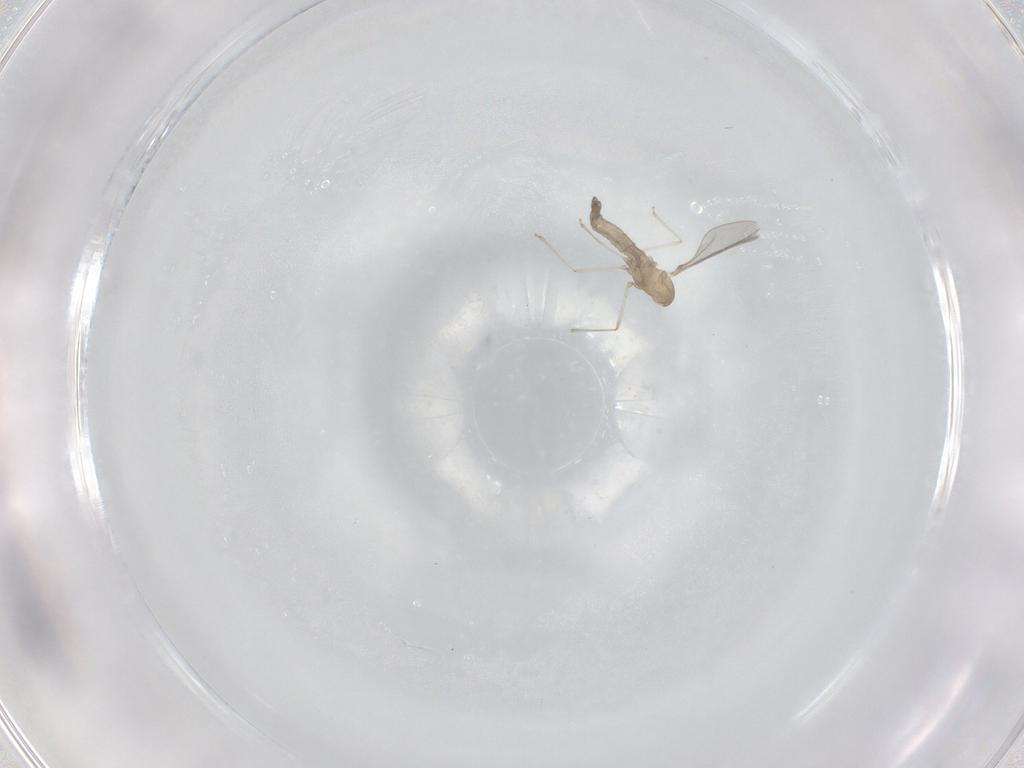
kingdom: Animalia
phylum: Arthropoda
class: Insecta
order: Diptera
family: Cecidomyiidae
